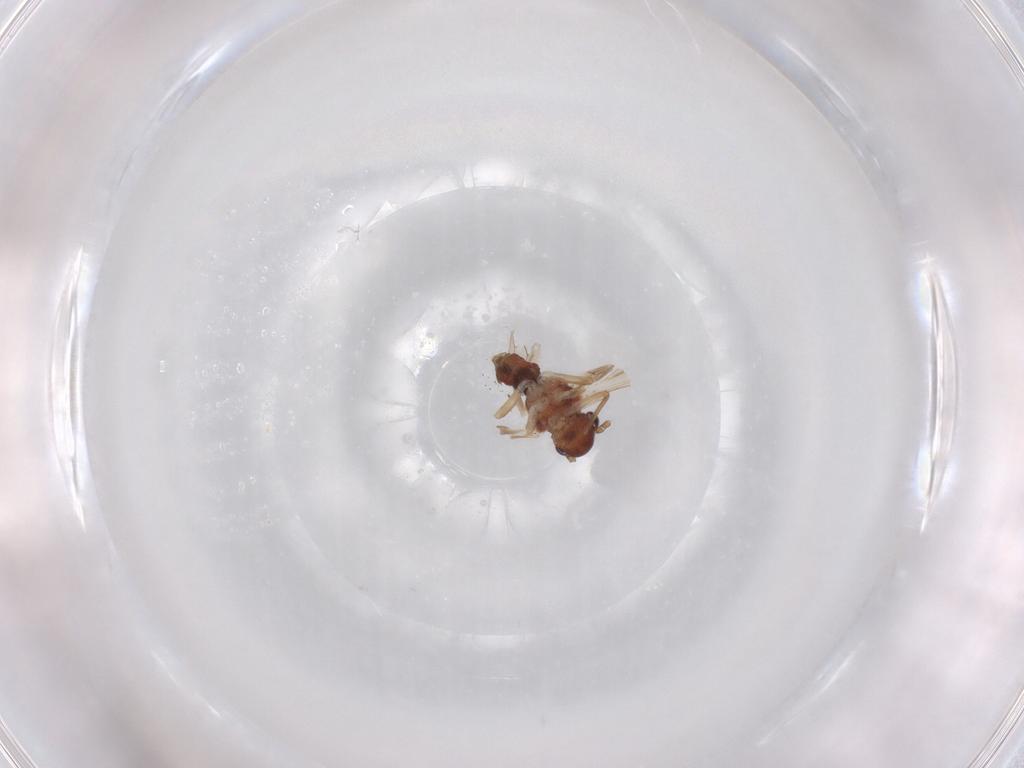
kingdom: Animalia
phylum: Arthropoda
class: Insecta
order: Psocodea
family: Caeciliusidae
